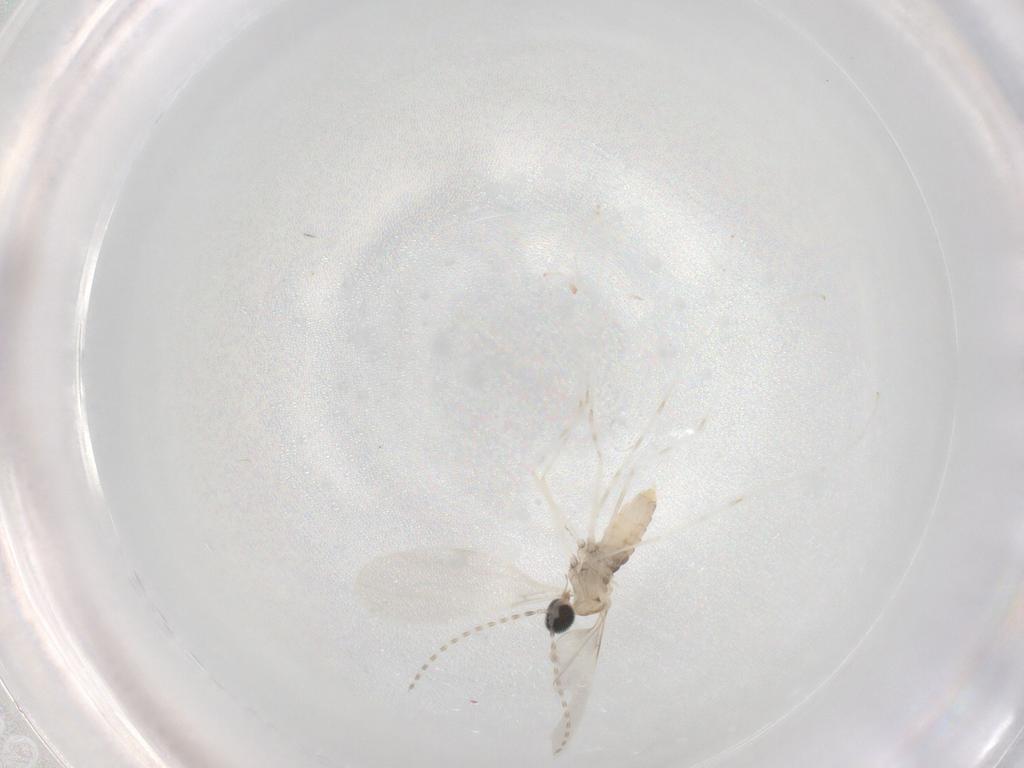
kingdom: Animalia
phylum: Arthropoda
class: Insecta
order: Diptera
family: Cecidomyiidae
